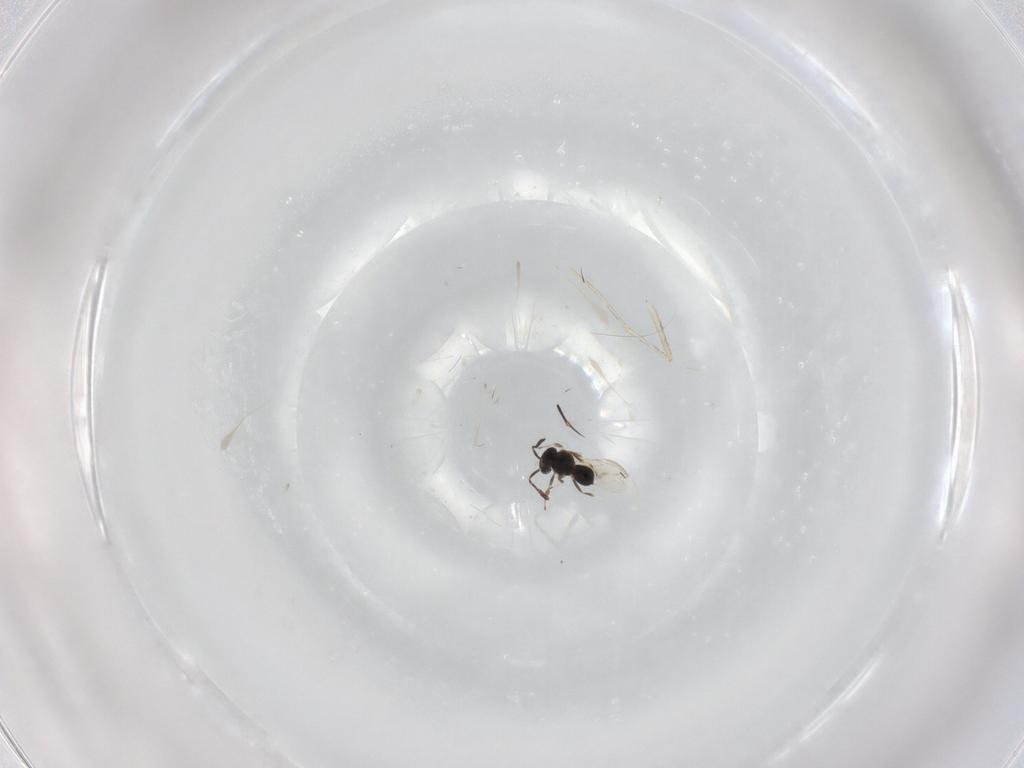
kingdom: Animalia
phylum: Arthropoda
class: Insecta
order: Hymenoptera
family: Scelionidae
